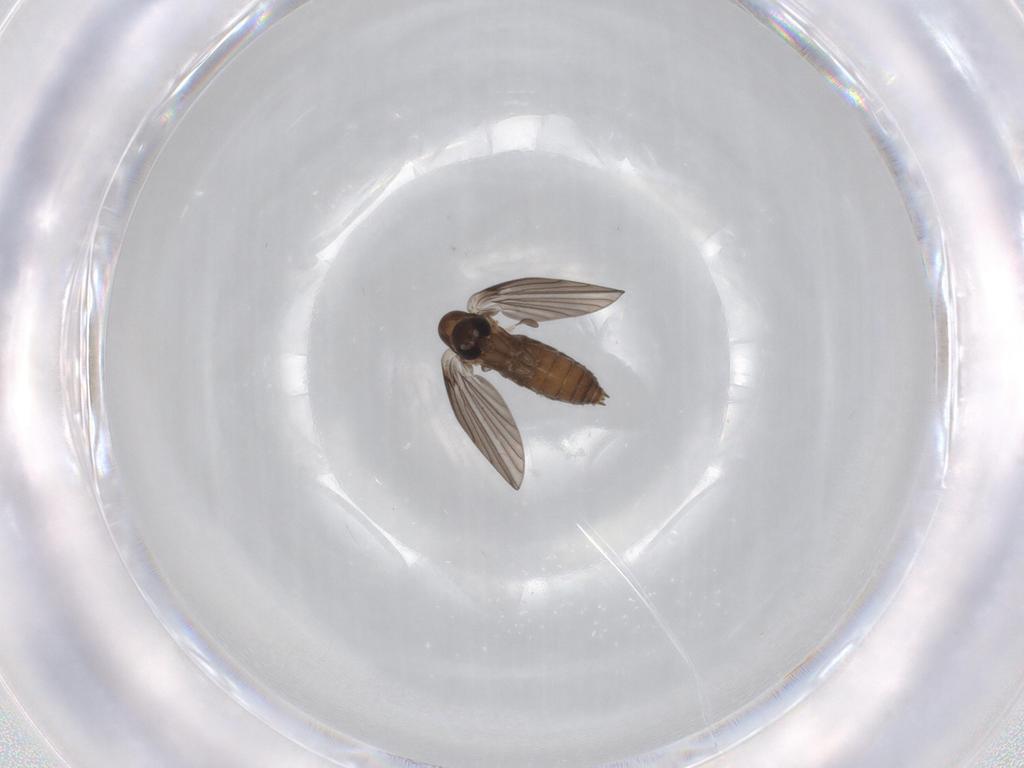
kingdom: Animalia
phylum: Arthropoda
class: Insecta
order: Diptera
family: Psychodidae
